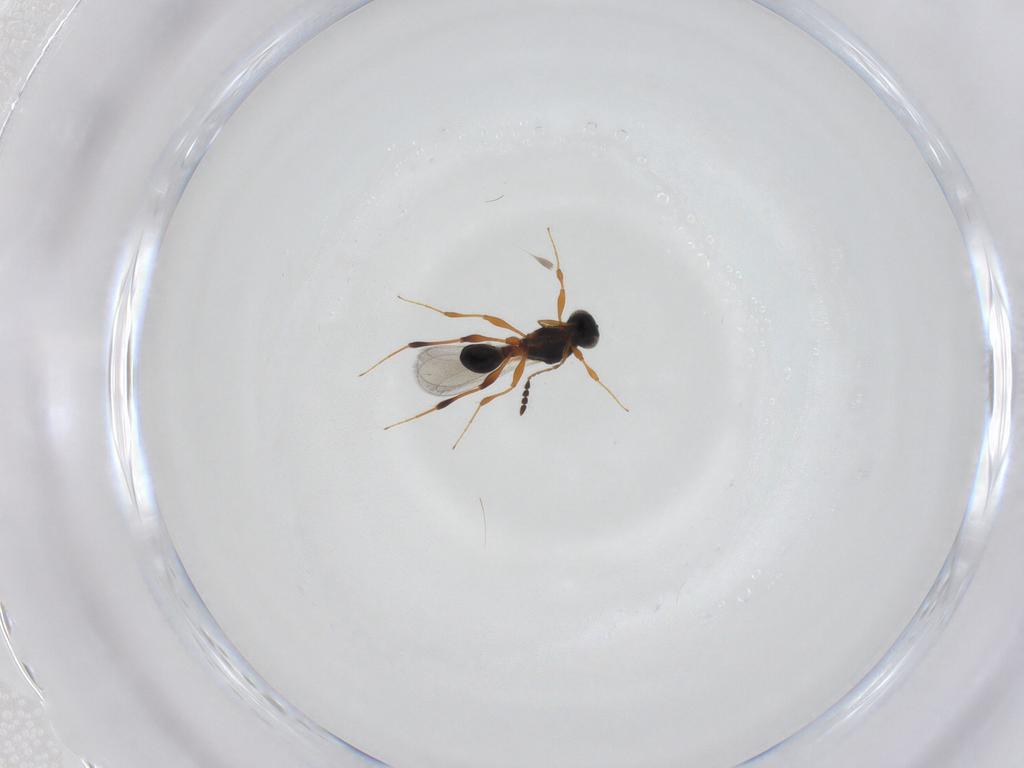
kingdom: Animalia
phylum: Arthropoda
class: Insecta
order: Hymenoptera
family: Platygastridae
